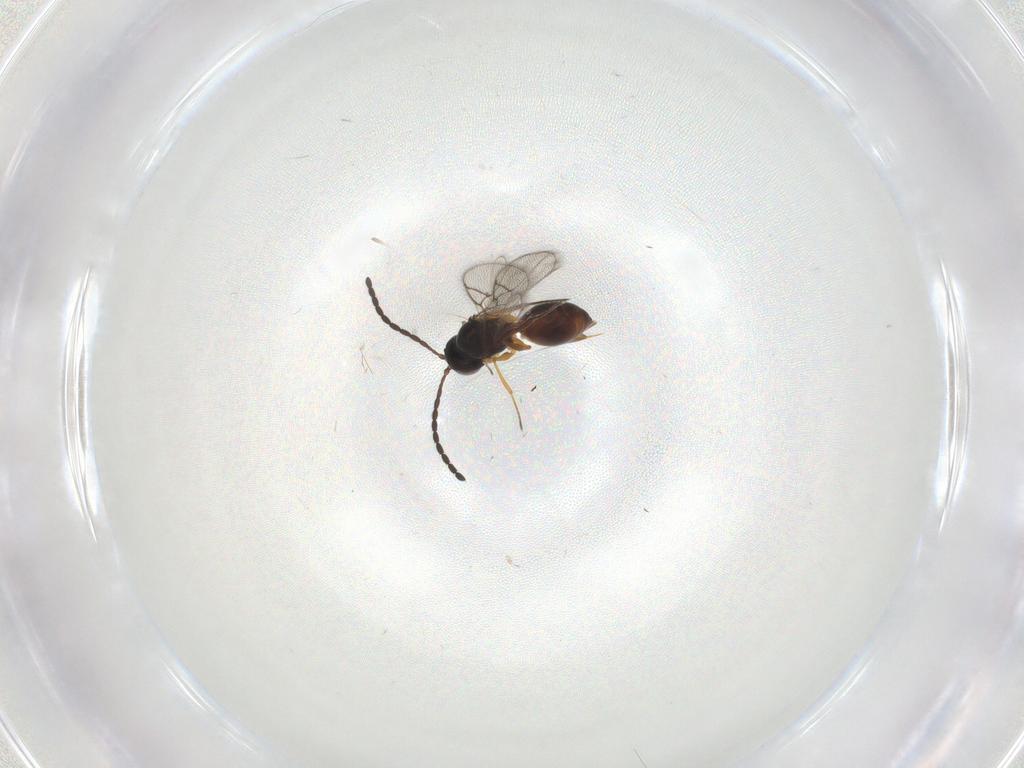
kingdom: Animalia
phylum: Arthropoda
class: Insecta
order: Hymenoptera
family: Figitidae
